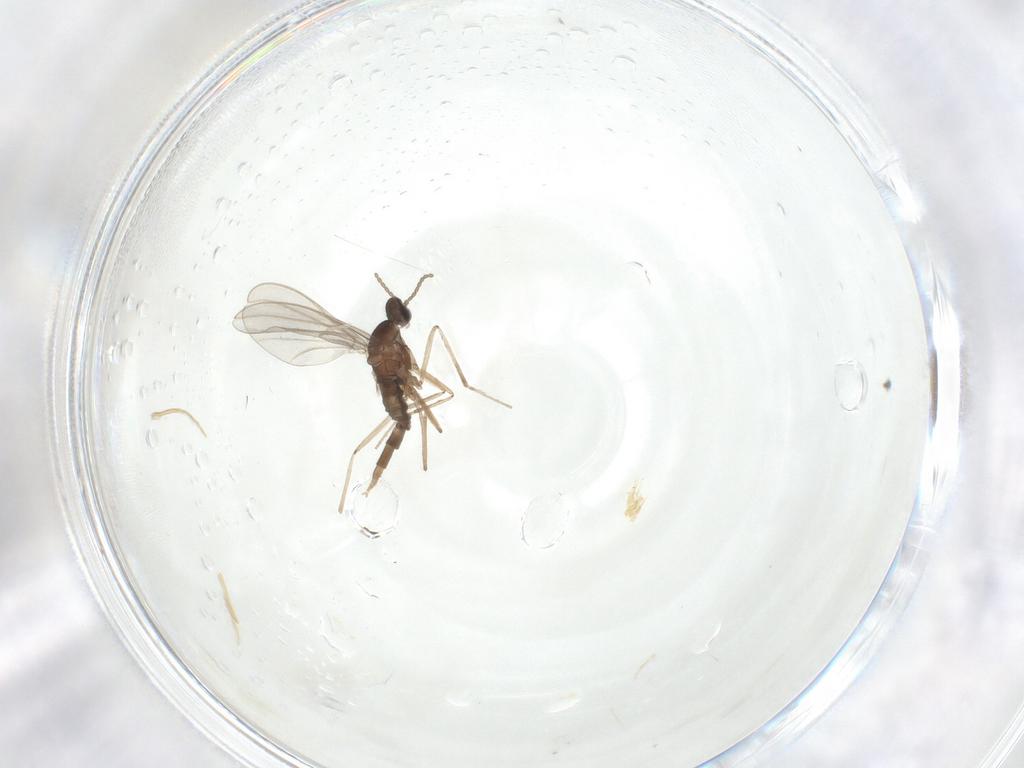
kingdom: Animalia
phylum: Arthropoda
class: Insecta
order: Diptera
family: Cecidomyiidae
